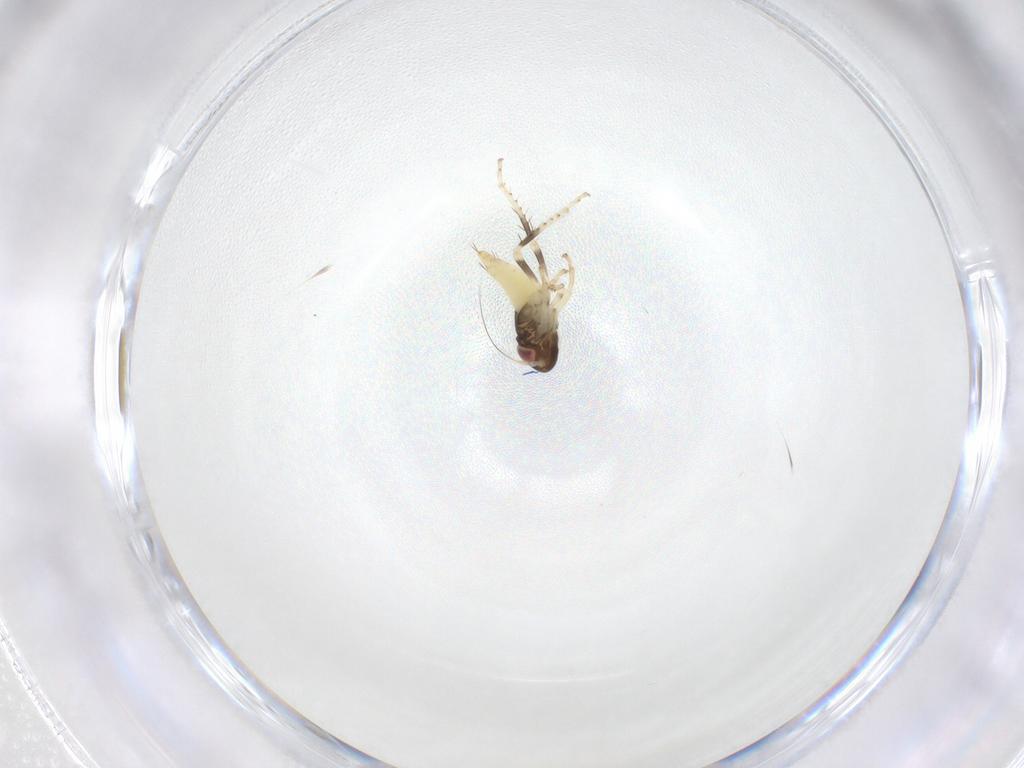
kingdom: Animalia
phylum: Arthropoda
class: Insecta
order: Hemiptera
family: Cicadellidae
